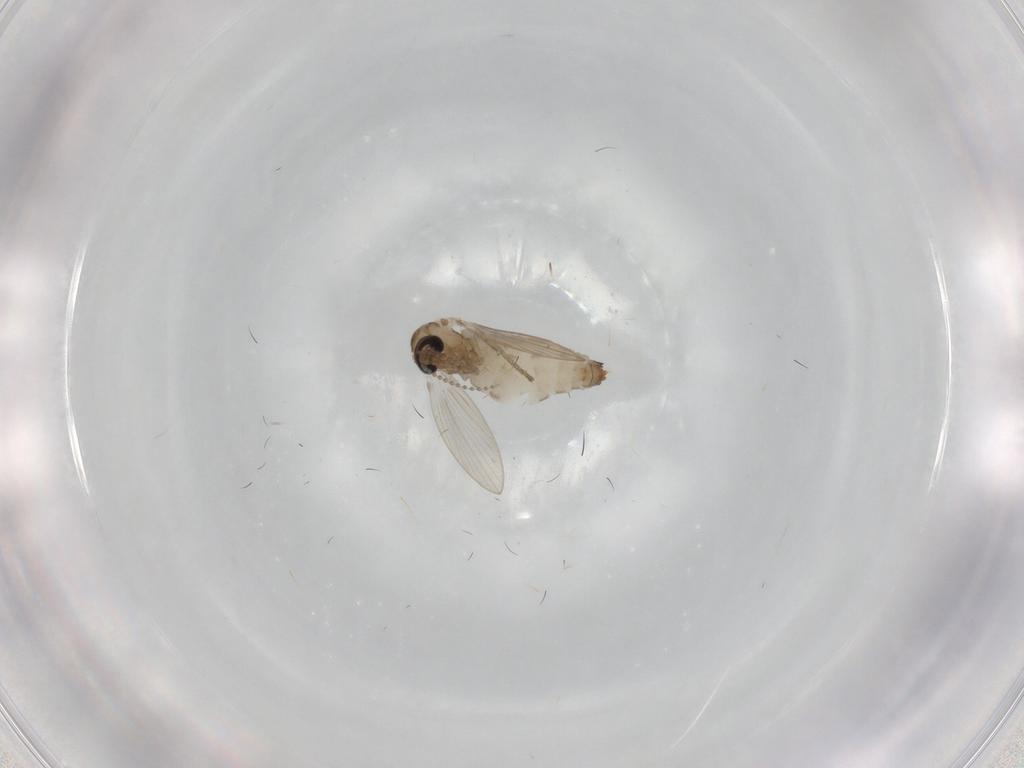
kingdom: Animalia
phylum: Arthropoda
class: Insecta
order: Diptera
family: Psychodidae
